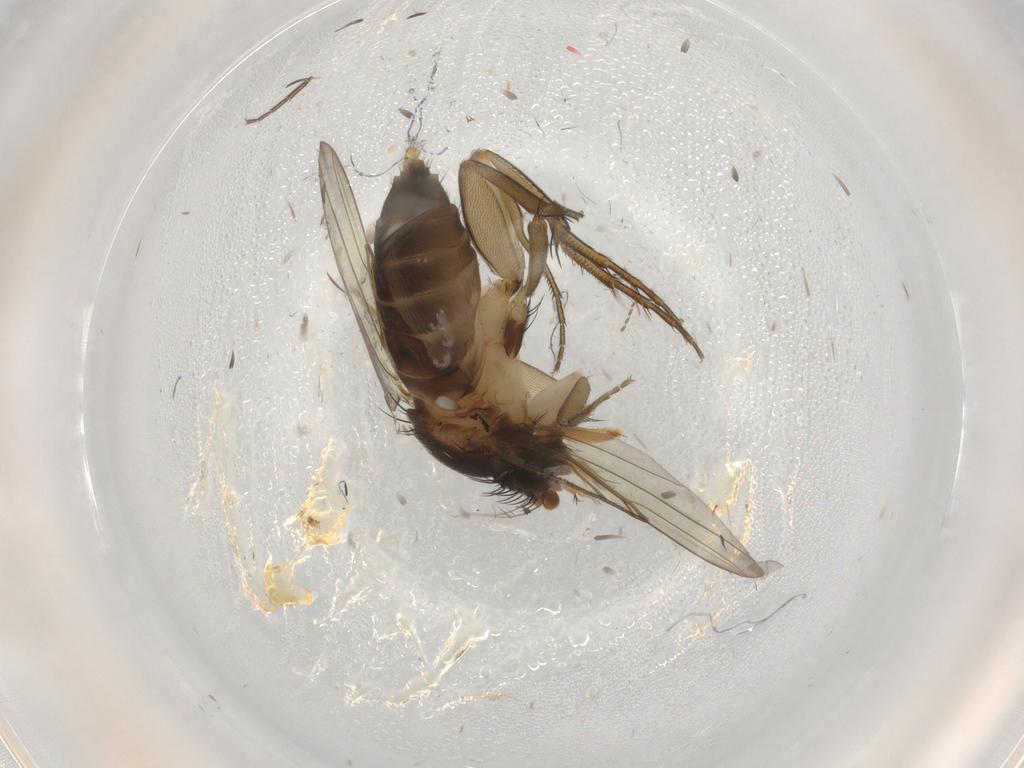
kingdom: Animalia
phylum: Arthropoda
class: Insecta
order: Diptera
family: Phoridae
